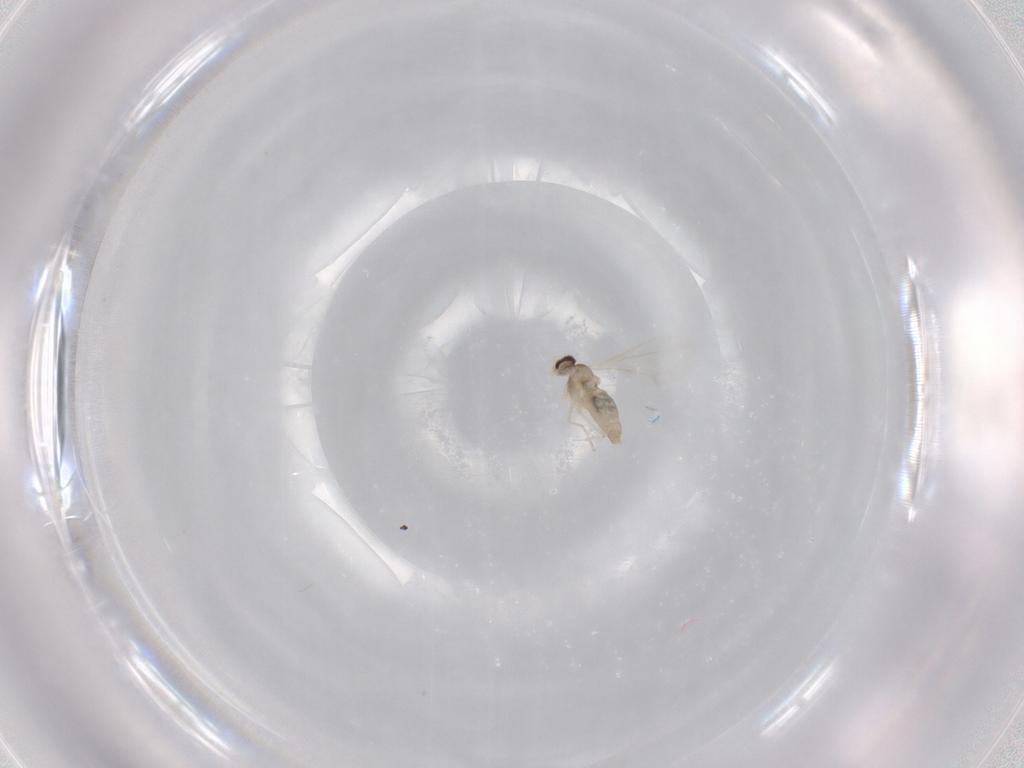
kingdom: Animalia
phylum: Arthropoda
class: Insecta
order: Diptera
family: Cecidomyiidae
